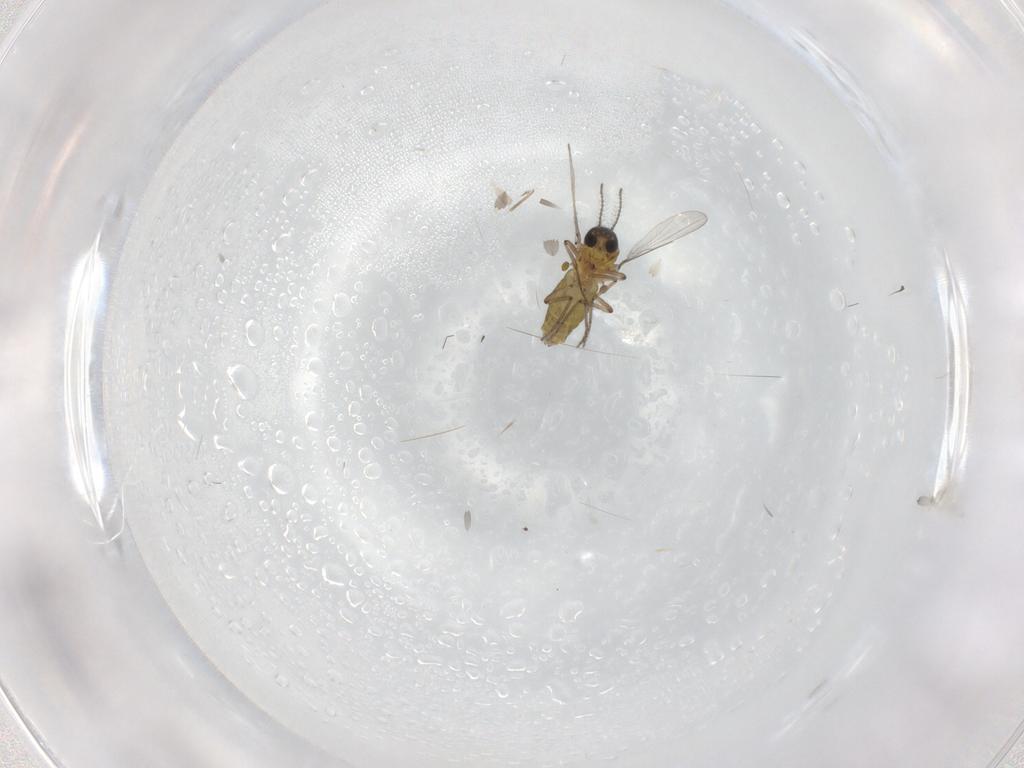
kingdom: Animalia
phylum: Arthropoda
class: Insecta
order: Diptera
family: Ceratopogonidae
